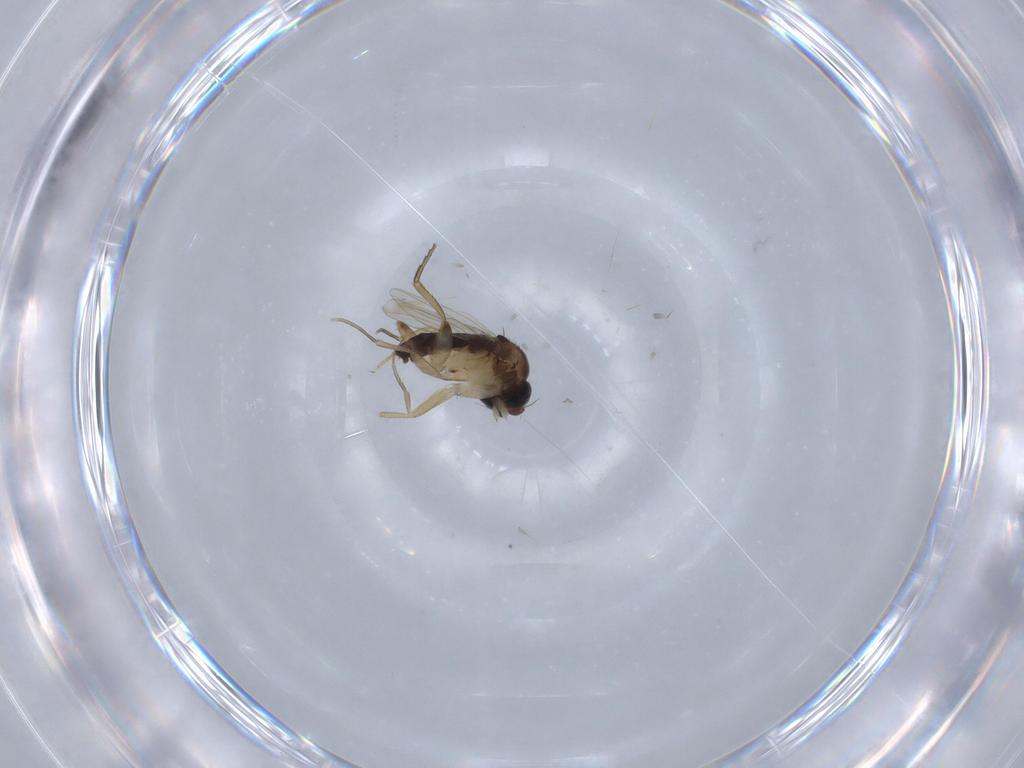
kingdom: Animalia
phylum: Arthropoda
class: Insecta
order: Diptera
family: Phoridae
